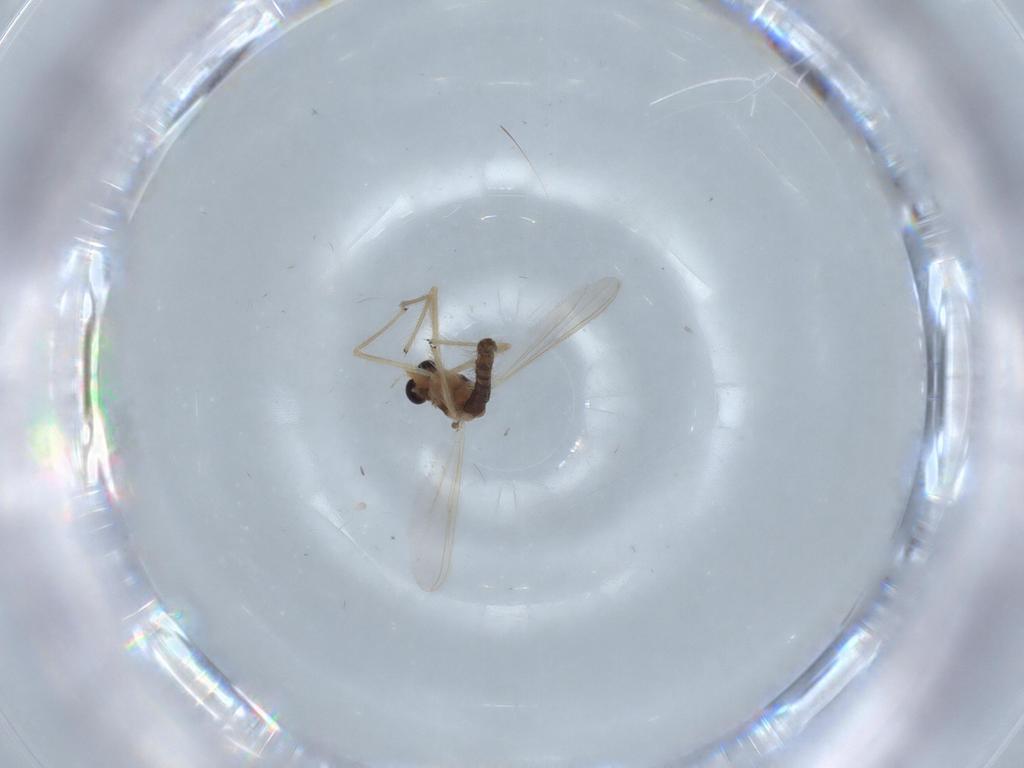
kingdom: Animalia
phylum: Arthropoda
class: Insecta
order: Diptera
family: Chironomidae
